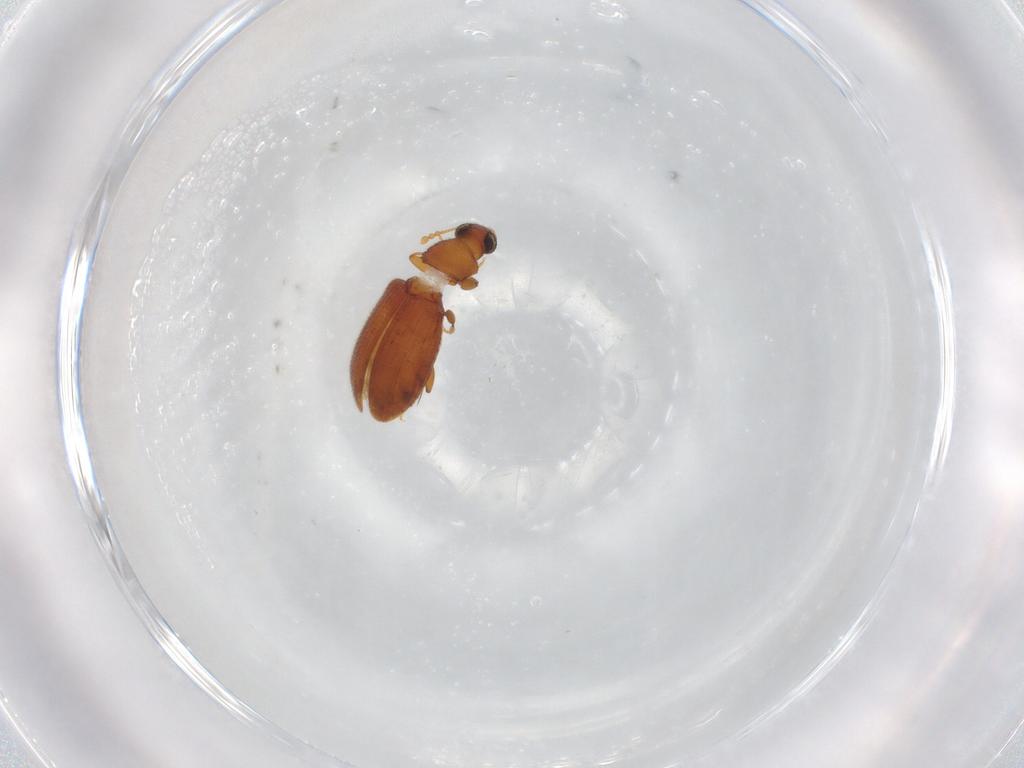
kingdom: Animalia
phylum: Arthropoda
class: Insecta
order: Coleoptera
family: Latridiidae
